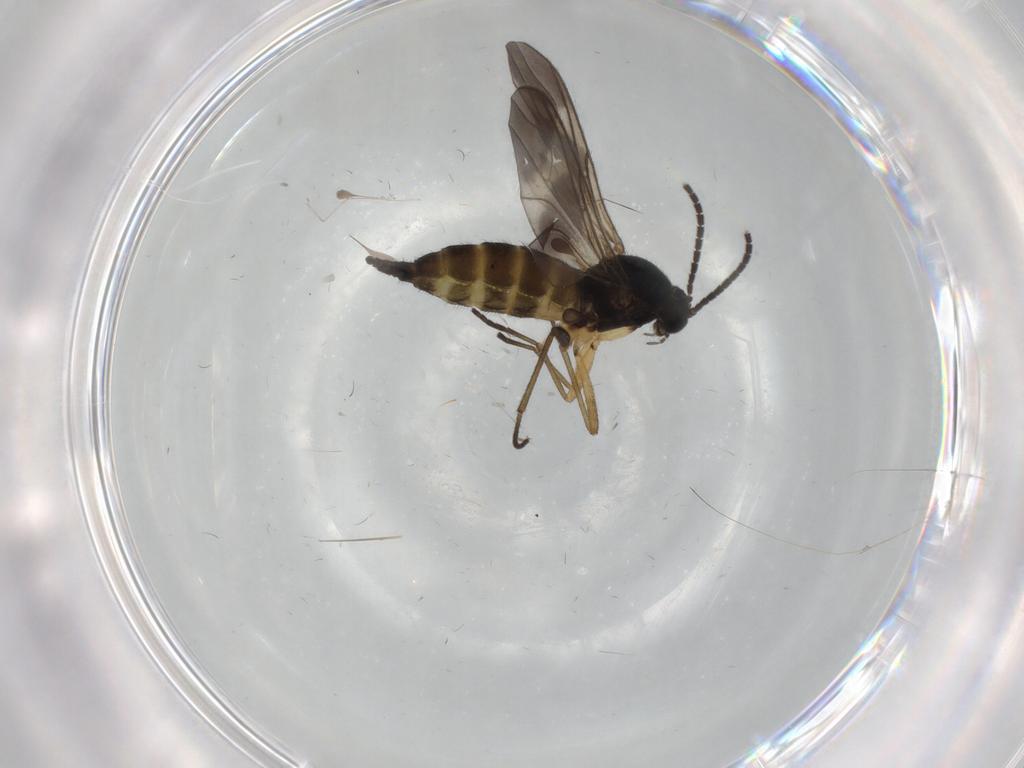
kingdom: Animalia
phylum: Arthropoda
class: Insecta
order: Diptera
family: Sciaridae
